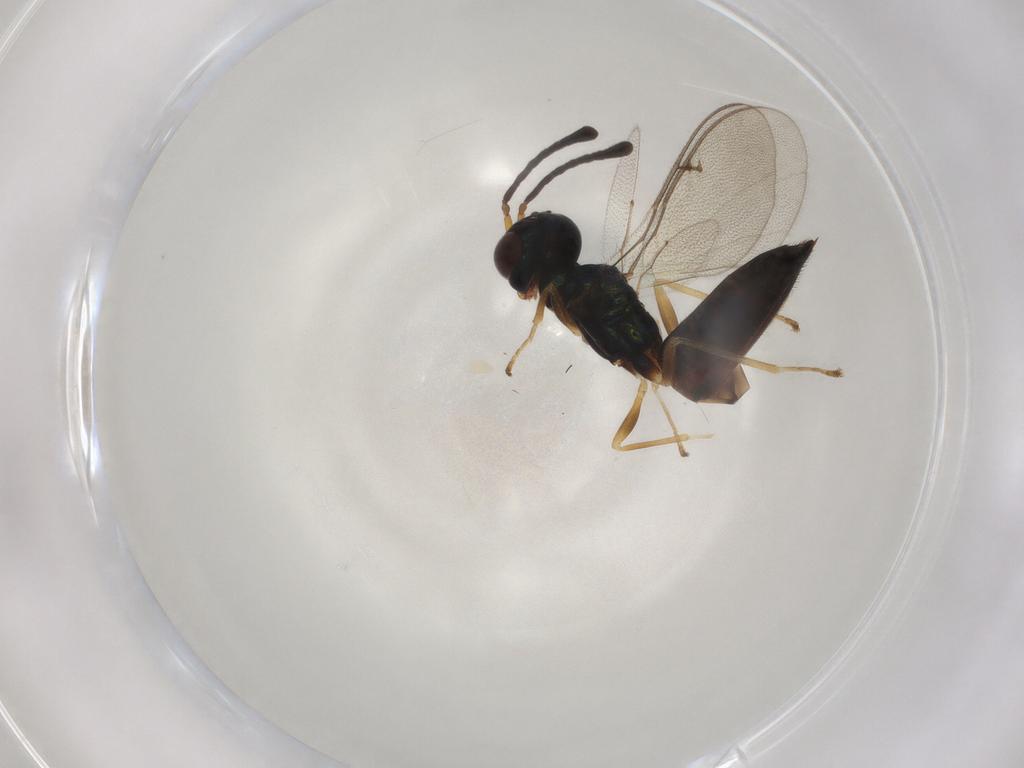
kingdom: Animalia
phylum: Arthropoda
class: Insecta
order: Hymenoptera
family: Pteromalidae
